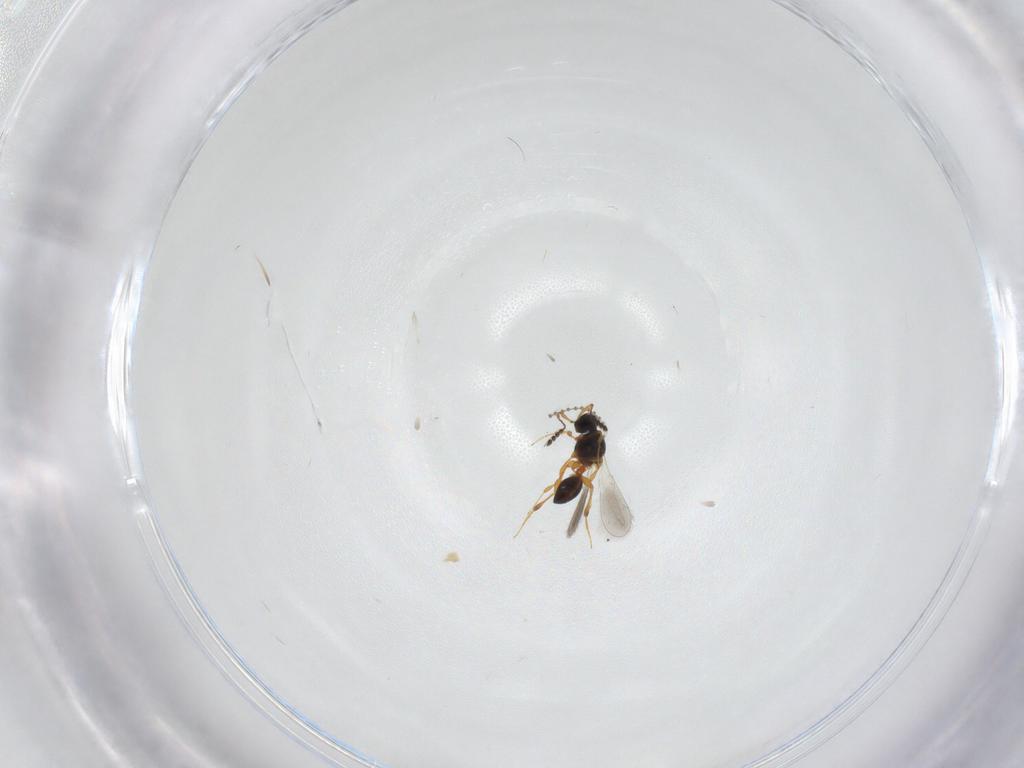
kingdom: Animalia
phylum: Arthropoda
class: Insecta
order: Hymenoptera
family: Platygastridae
